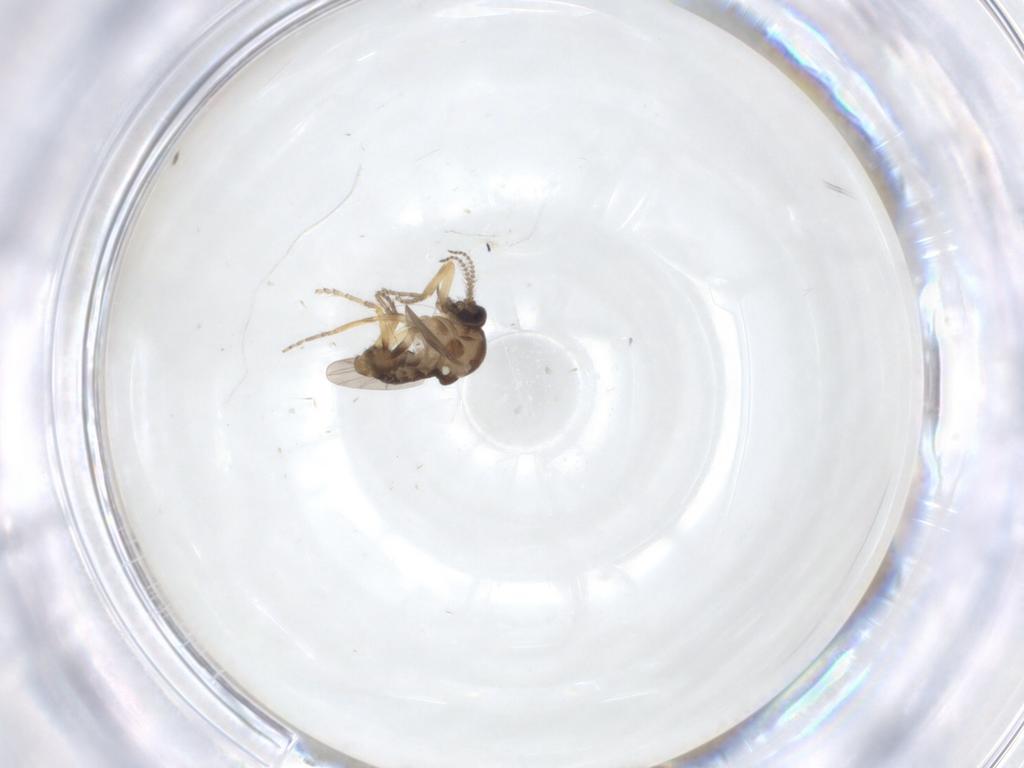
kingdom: Animalia
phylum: Arthropoda
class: Insecta
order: Diptera
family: Ceratopogonidae
